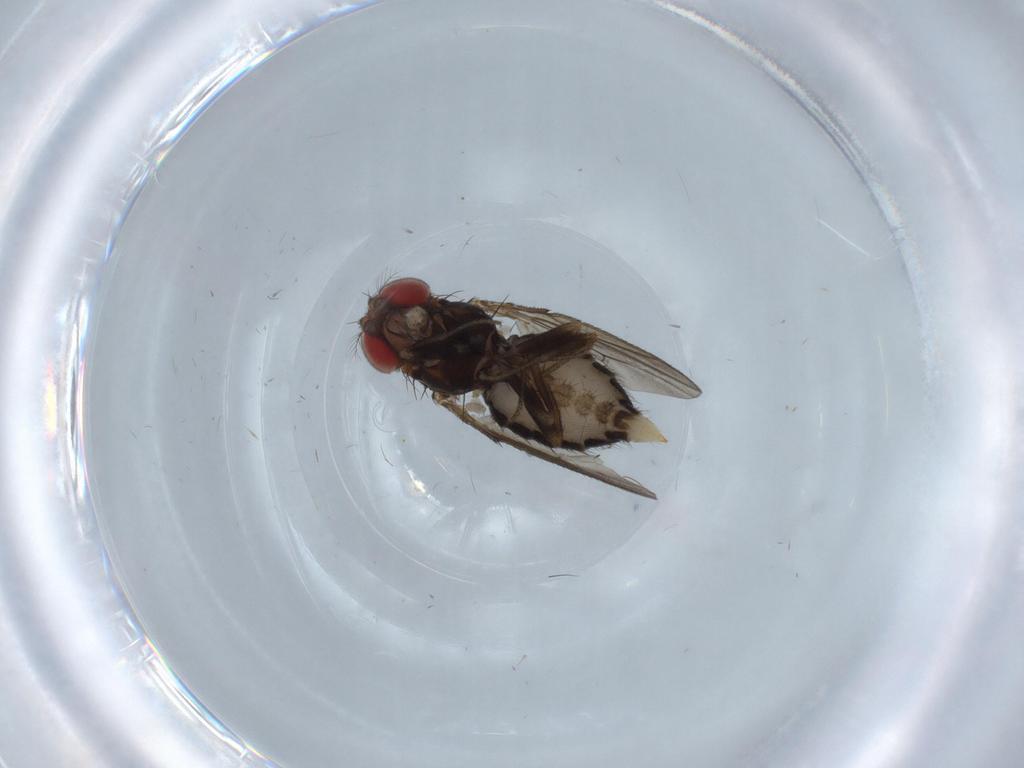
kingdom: Animalia
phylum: Arthropoda
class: Insecta
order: Diptera
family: Drosophilidae
